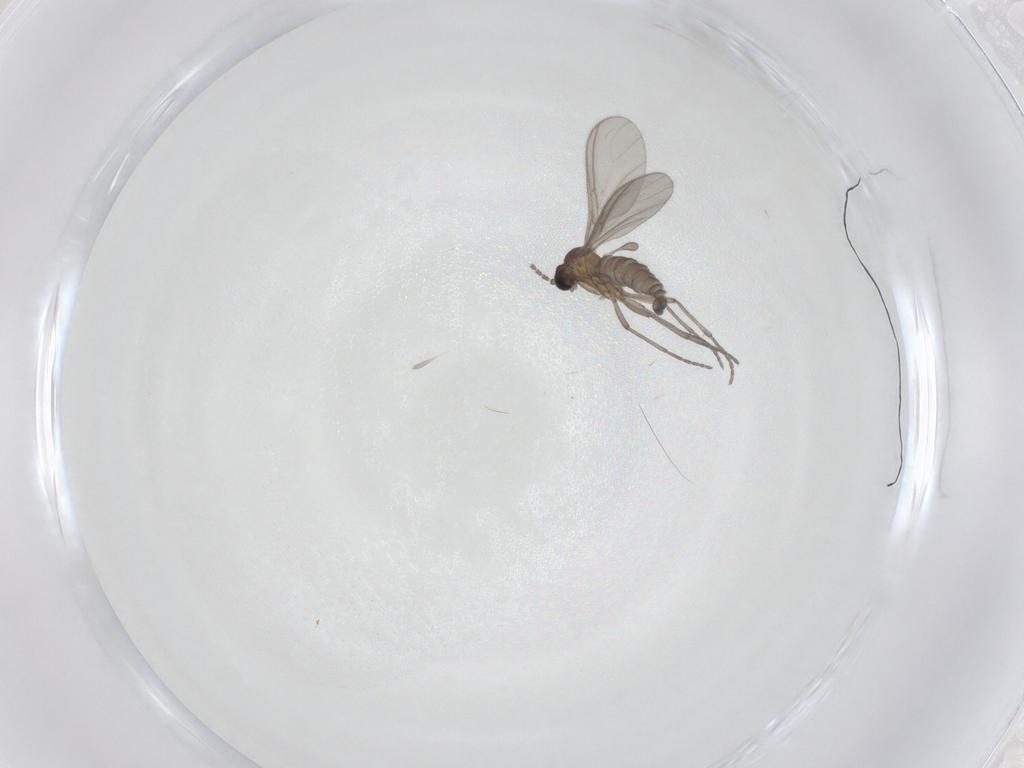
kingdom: Animalia
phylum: Arthropoda
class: Insecta
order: Diptera
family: Sciaridae
